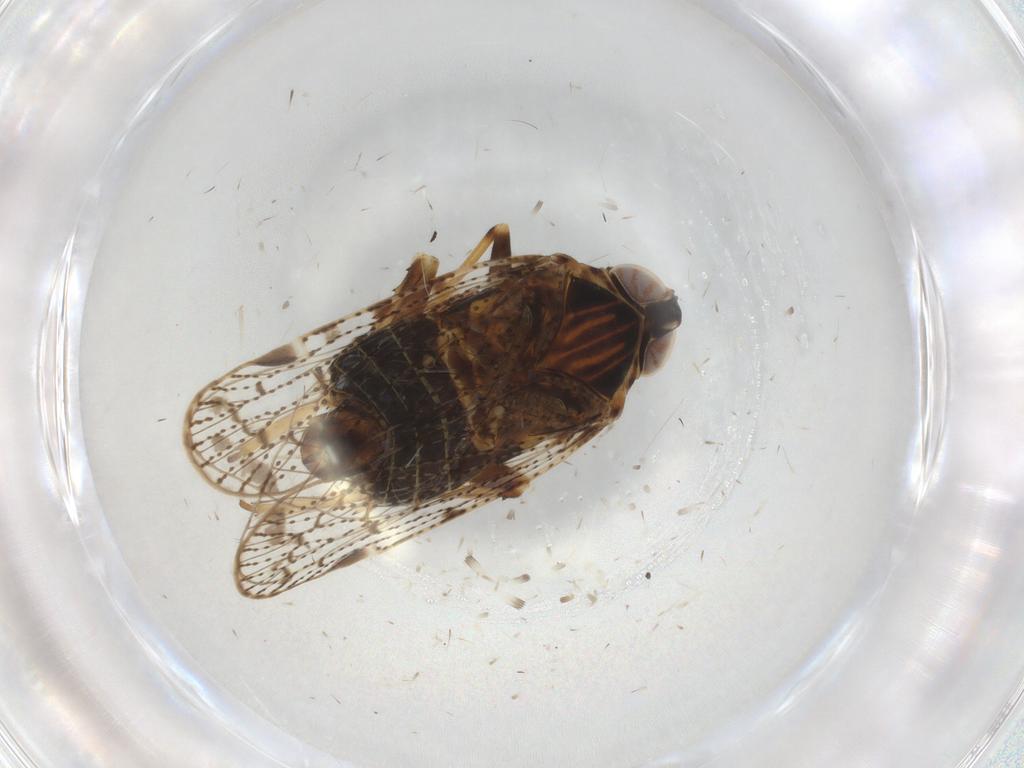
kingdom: Animalia
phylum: Arthropoda
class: Insecta
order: Hemiptera
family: Cixiidae
